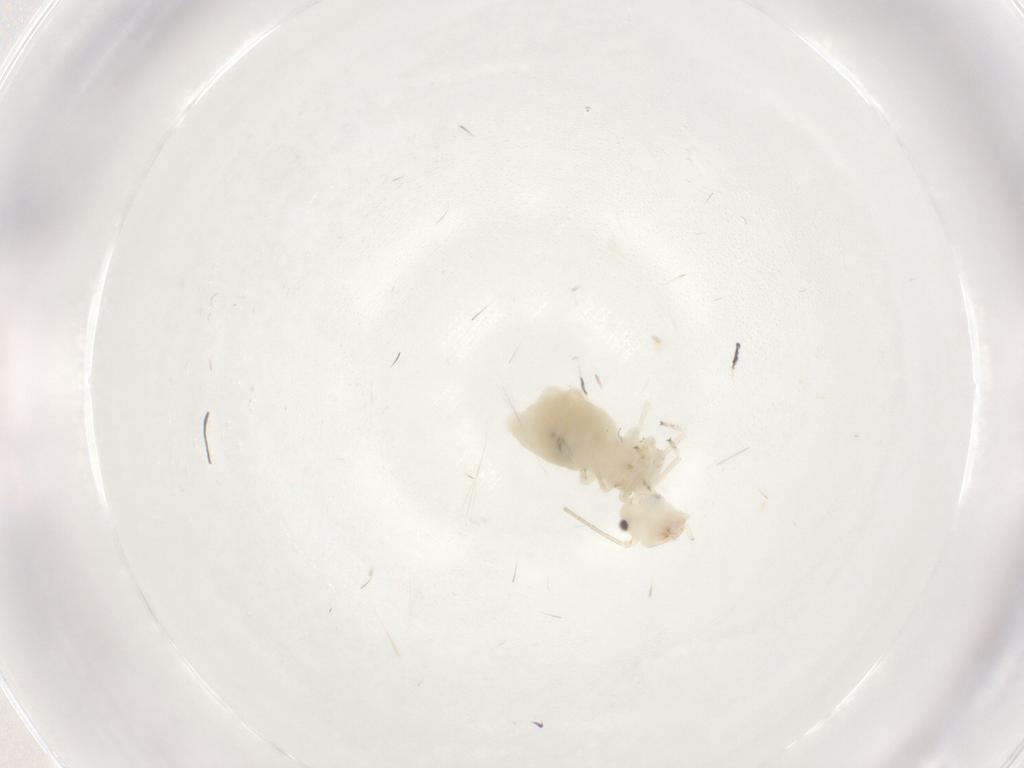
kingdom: Animalia
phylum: Arthropoda
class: Insecta
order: Psocodea
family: Stenopsocidae
